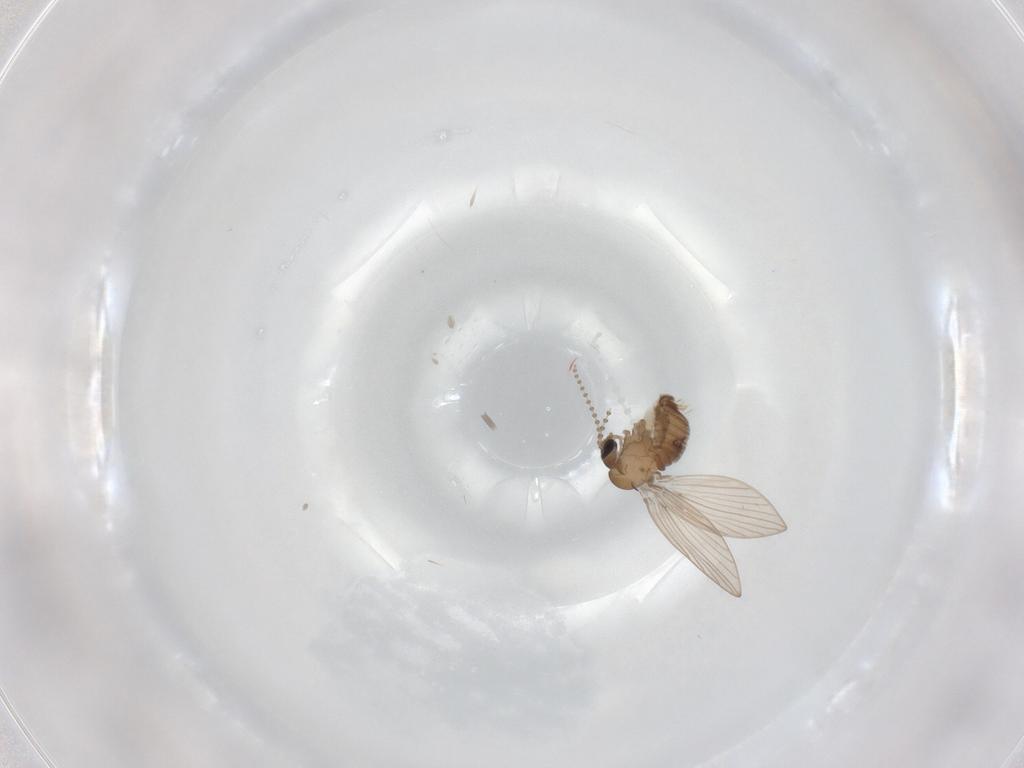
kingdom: Animalia
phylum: Arthropoda
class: Insecta
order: Diptera
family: Psychodidae
